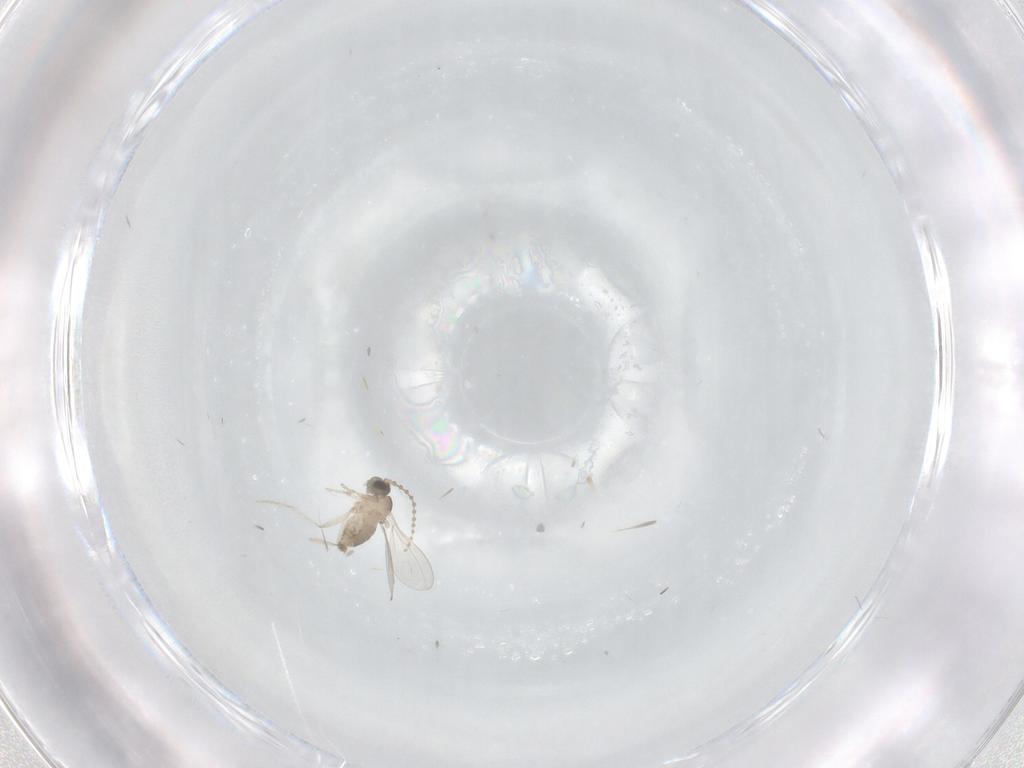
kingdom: Animalia
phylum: Arthropoda
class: Insecta
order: Diptera
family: Cecidomyiidae
